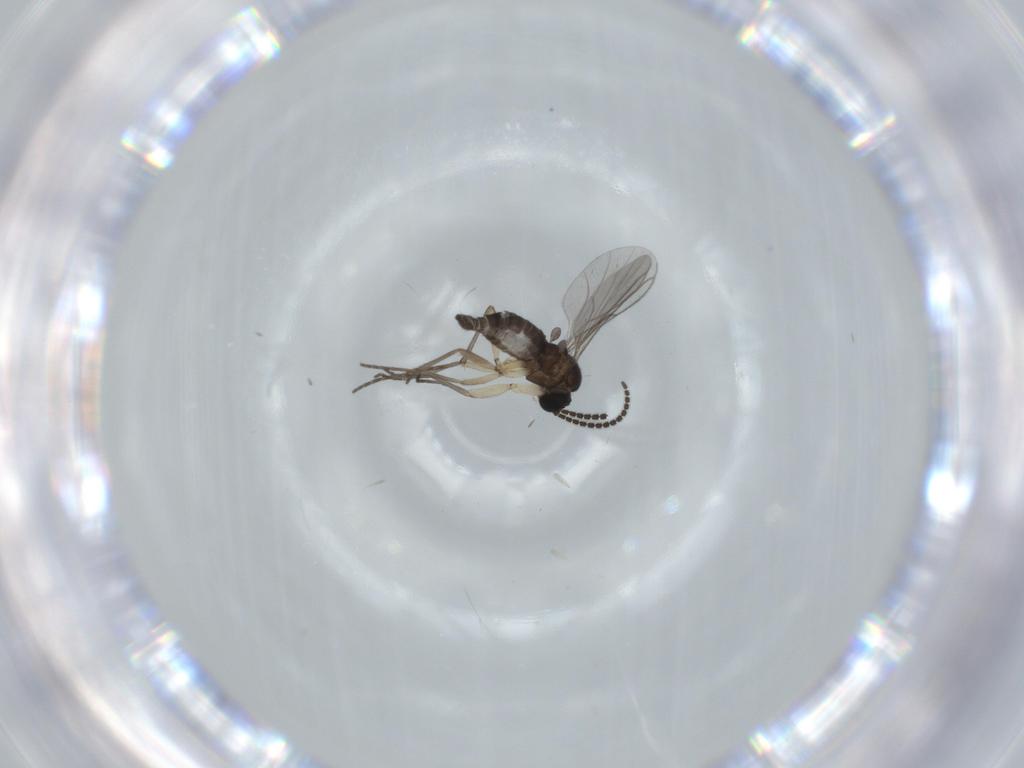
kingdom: Animalia
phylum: Arthropoda
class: Insecta
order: Diptera
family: Sciaridae
